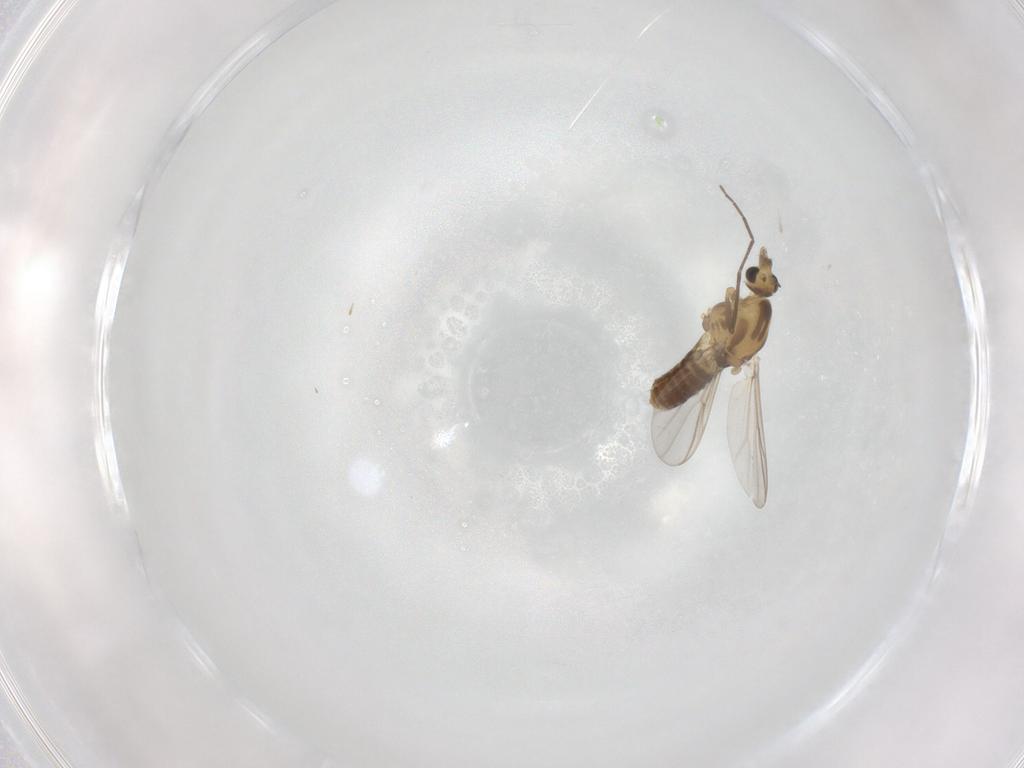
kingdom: Animalia
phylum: Arthropoda
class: Insecta
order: Diptera
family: Chironomidae
